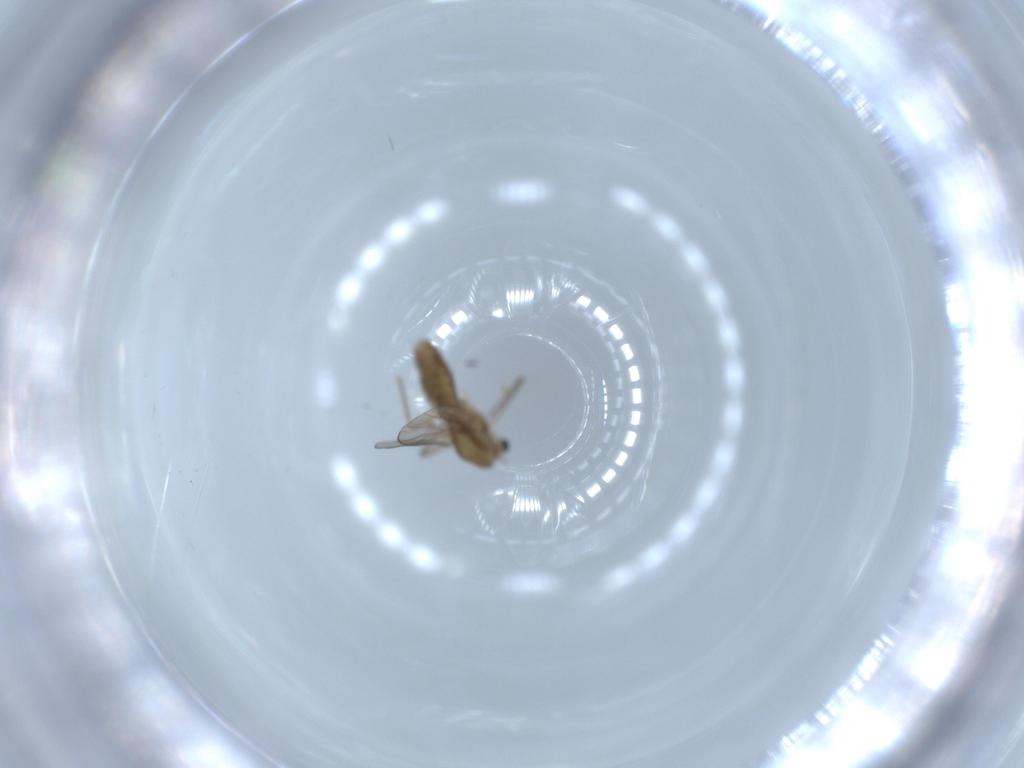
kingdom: Animalia
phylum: Arthropoda
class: Insecta
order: Diptera
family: Chironomidae
